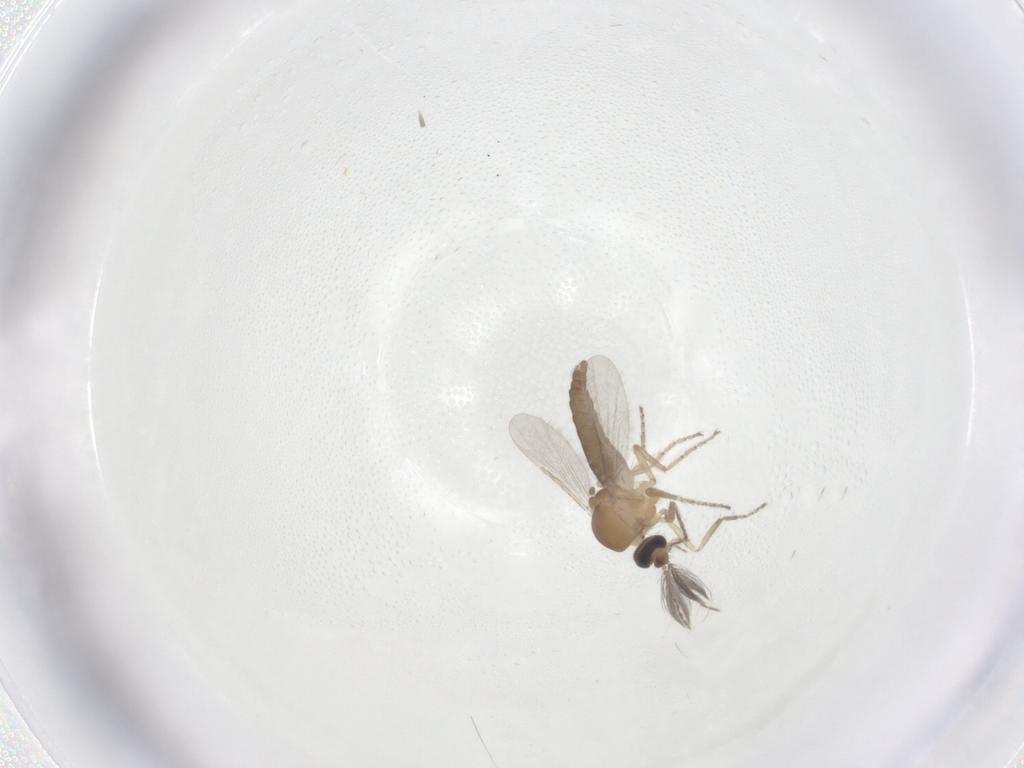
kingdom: Animalia
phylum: Arthropoda
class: Insecta
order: Diptera
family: Ceratopogonidae
